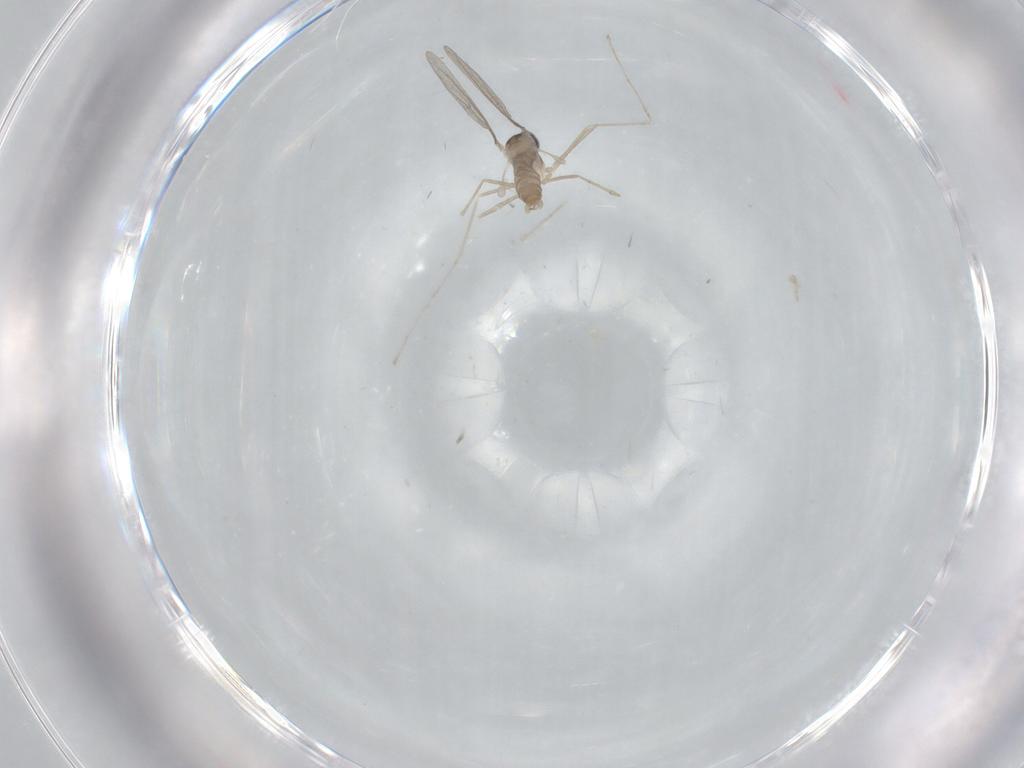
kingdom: Animalia
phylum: Arthropoda
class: Insecta
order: Diptera
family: Cecidomyiidae
